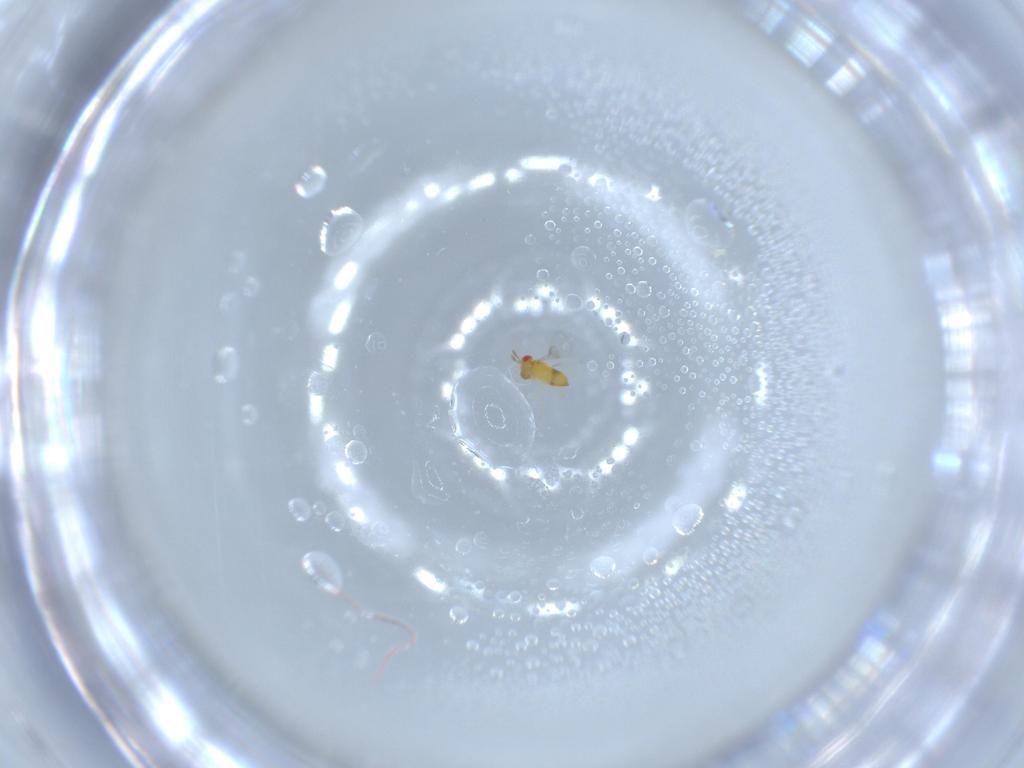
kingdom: Animalia
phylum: Arthropoda
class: Insecta
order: Hymenoptera
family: Trichogrammatidae
